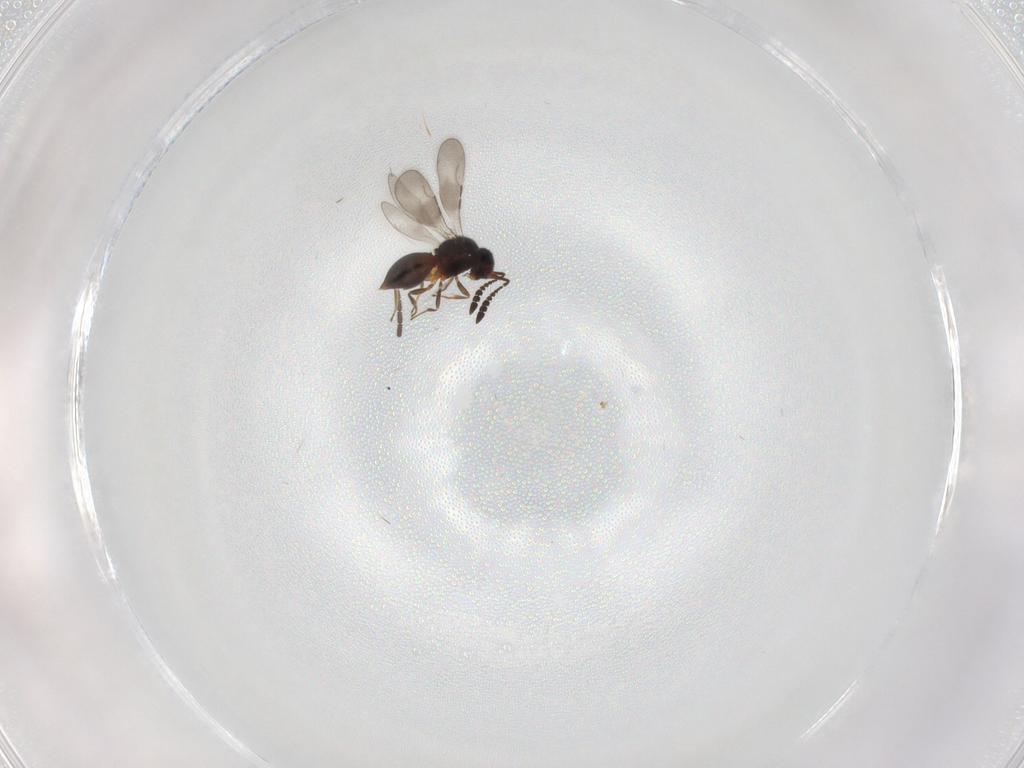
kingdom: Animalia
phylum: Arthropoda
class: Insecta
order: Hymenoptera
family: Ceraphronidae
